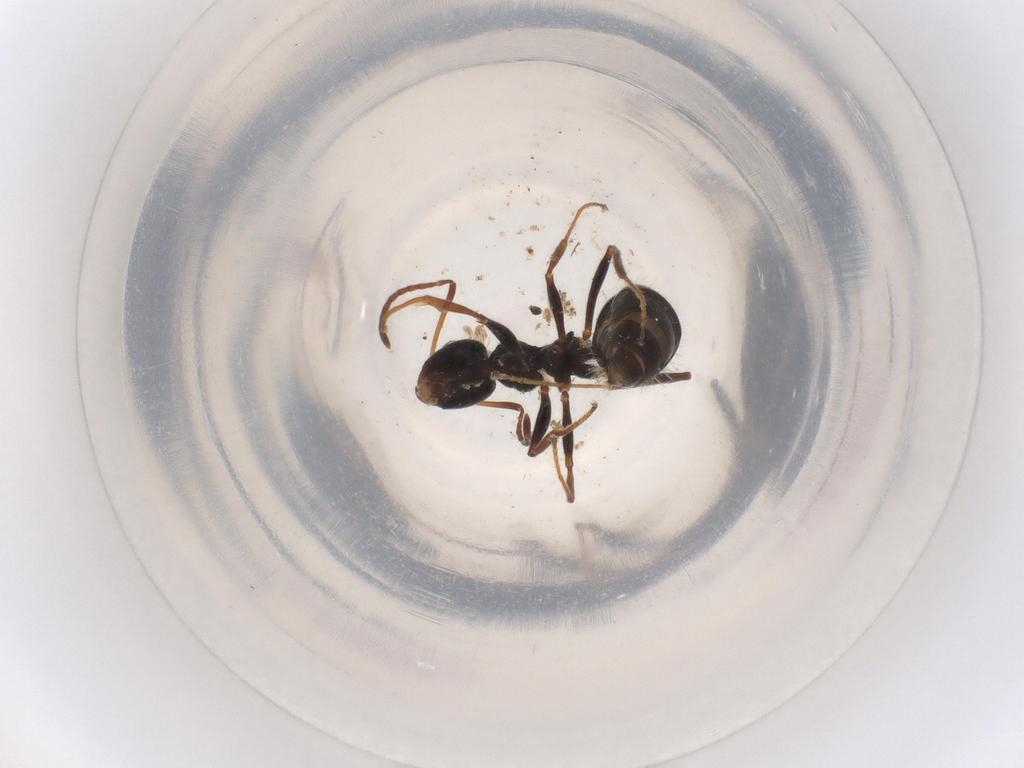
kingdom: Animalia
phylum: Arthropoda
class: Insecta
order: Hymenoptera
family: Formicidae
